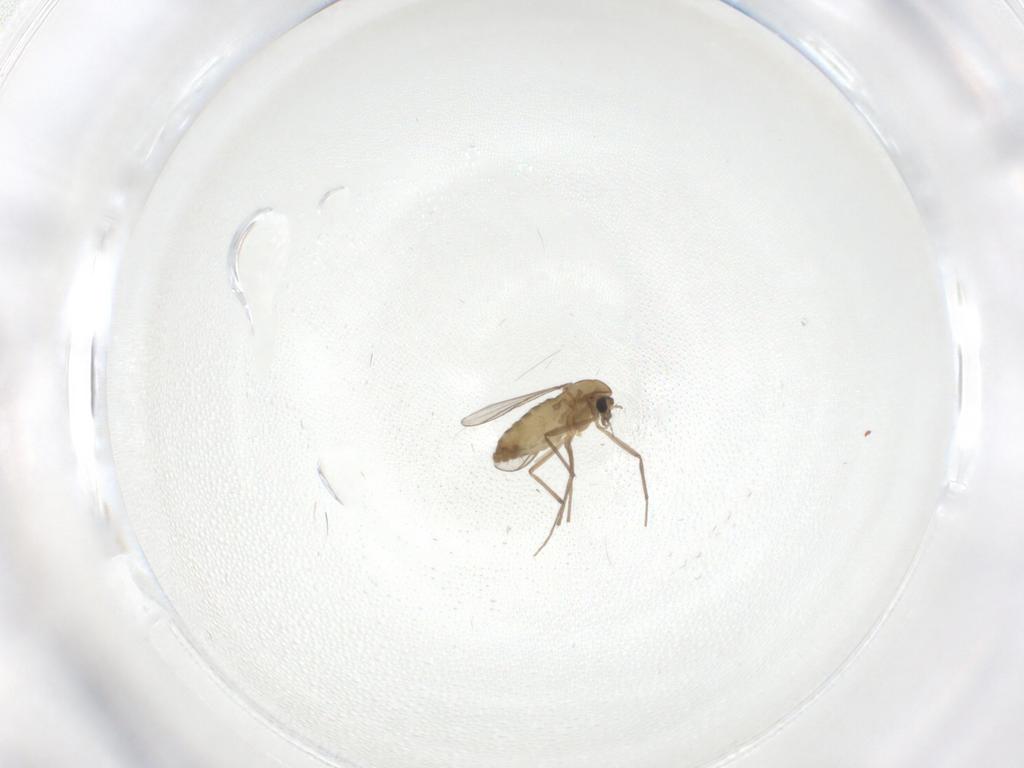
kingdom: Animalia
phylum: Arthropoda
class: Insecta
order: Diptera
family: Chironomidae
